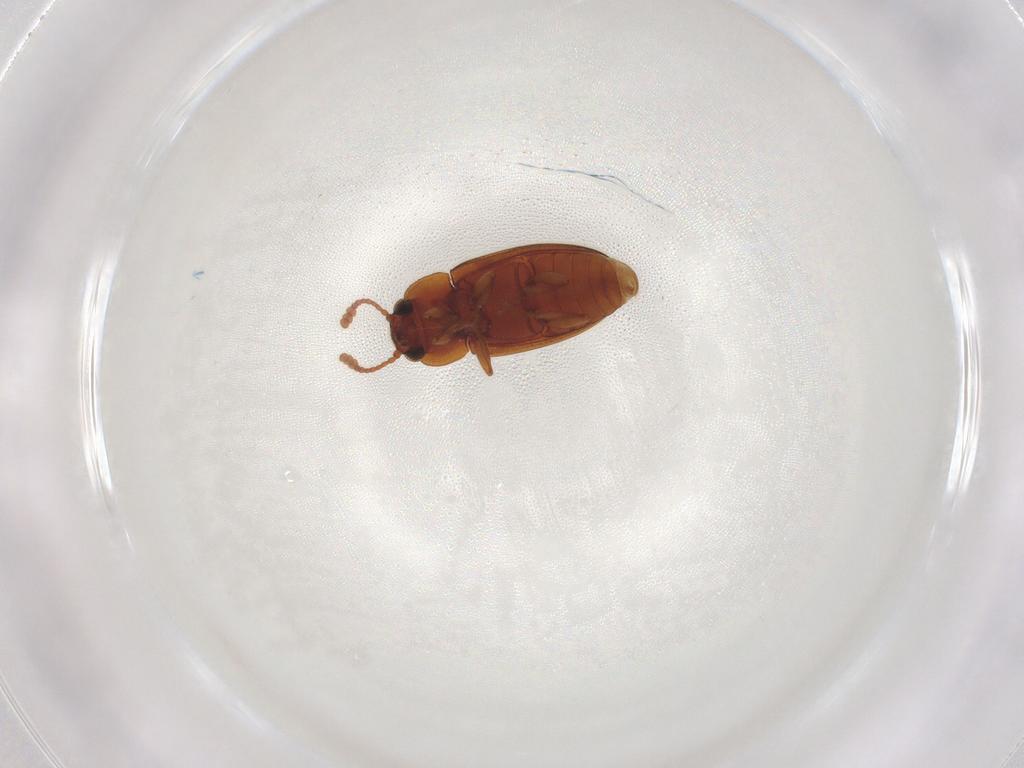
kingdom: Animalia
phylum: Arthropoda
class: Insecta
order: Coleoptera
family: Erotylidae
